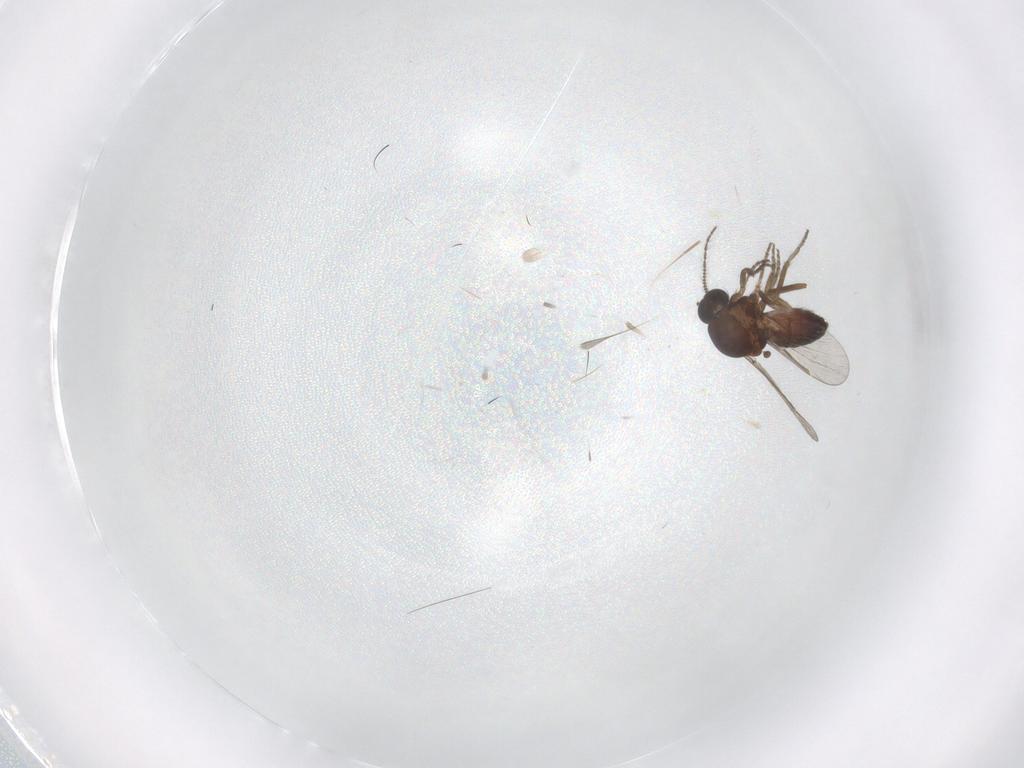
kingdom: Animalia
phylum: Arthropoda
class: Insecta
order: Diptera
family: Ceratopogonidae
